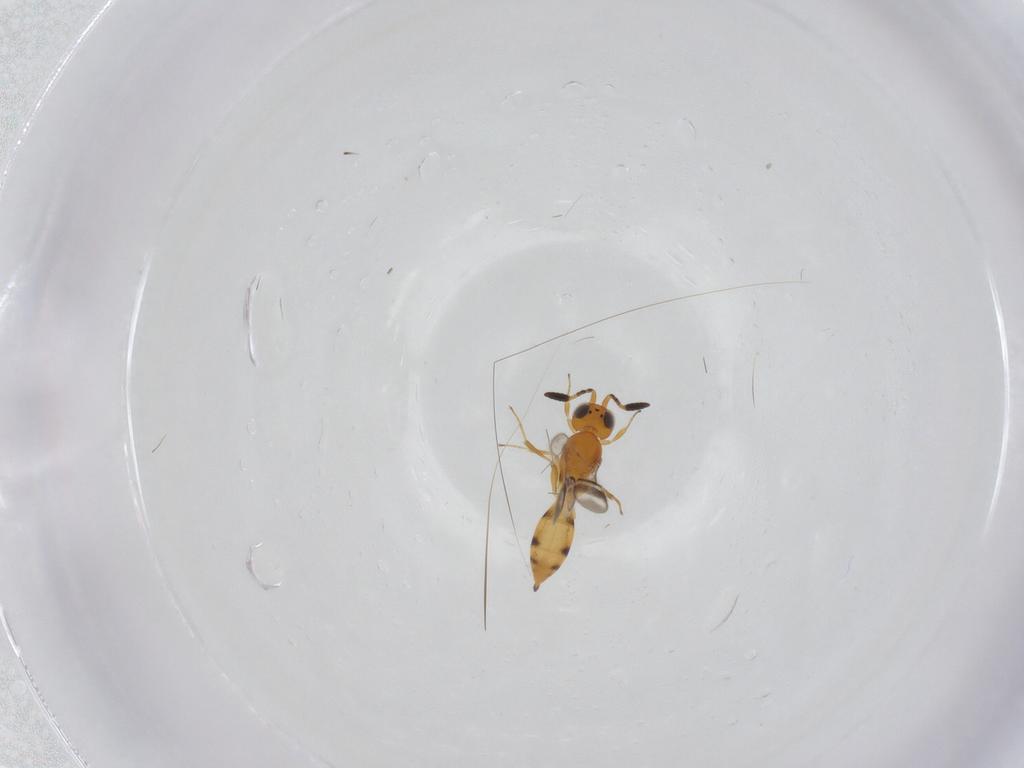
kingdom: Animalia
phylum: Arthropoda
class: Insecta
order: Hymenoptera
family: Scelionidae
